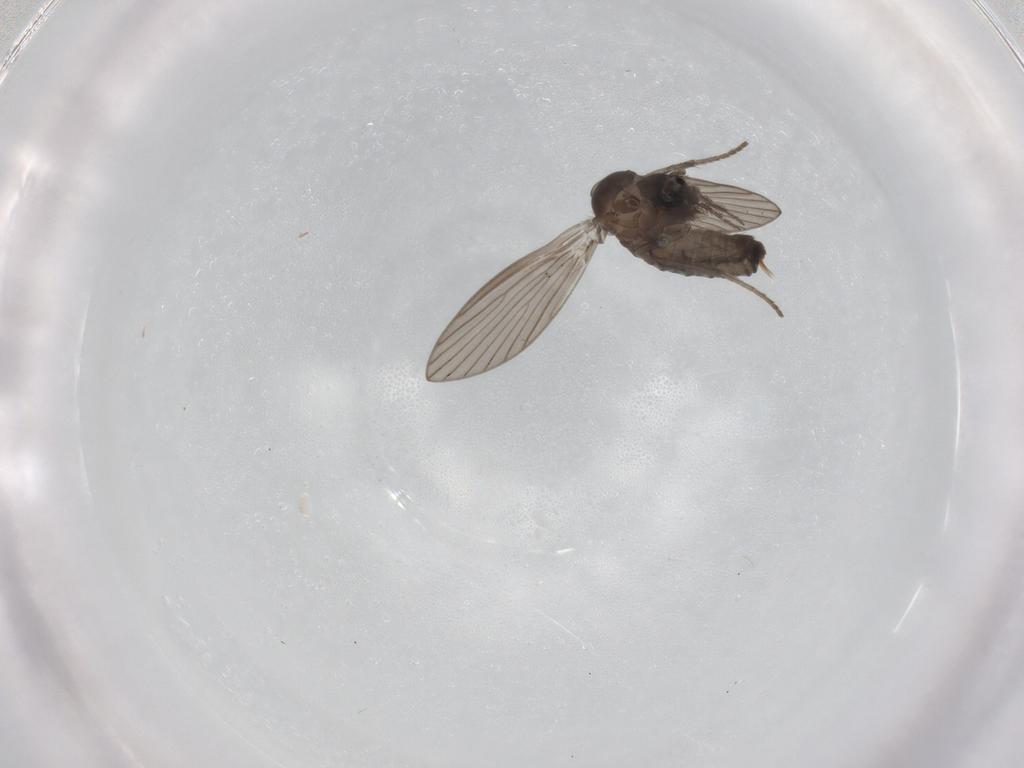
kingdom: Animalia
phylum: Arthropoda
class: Insecta
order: Diptera
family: Psychodidae
